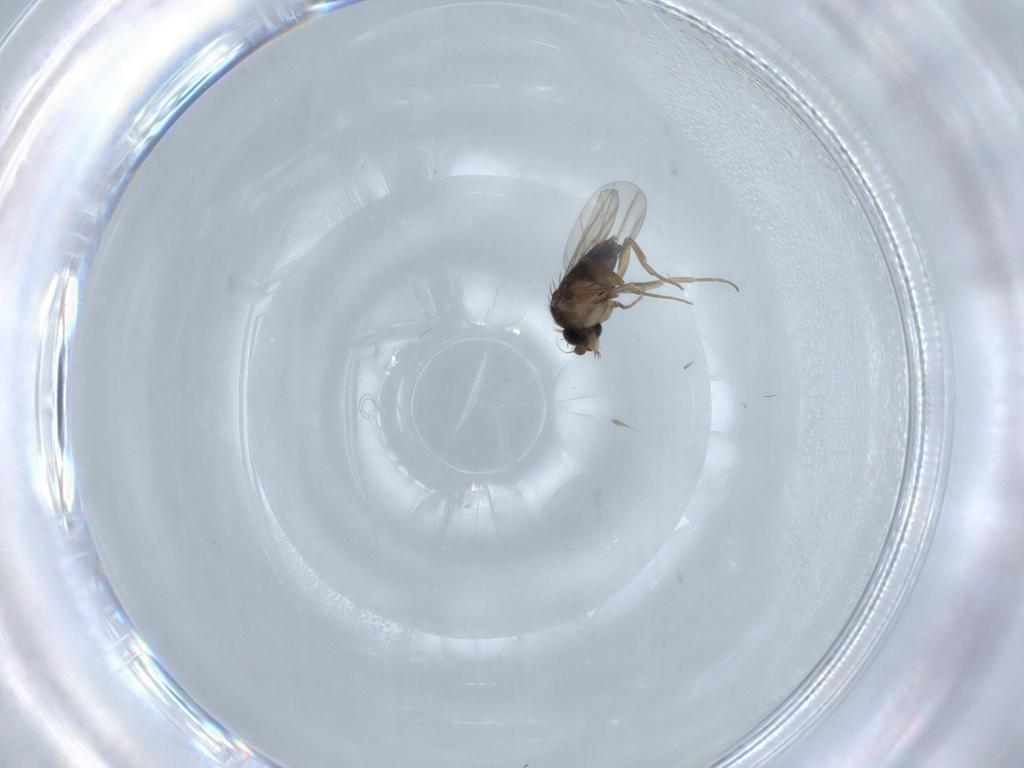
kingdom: Animalia
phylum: Arthropoda
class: Insecta
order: Diptera
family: Phoridae
